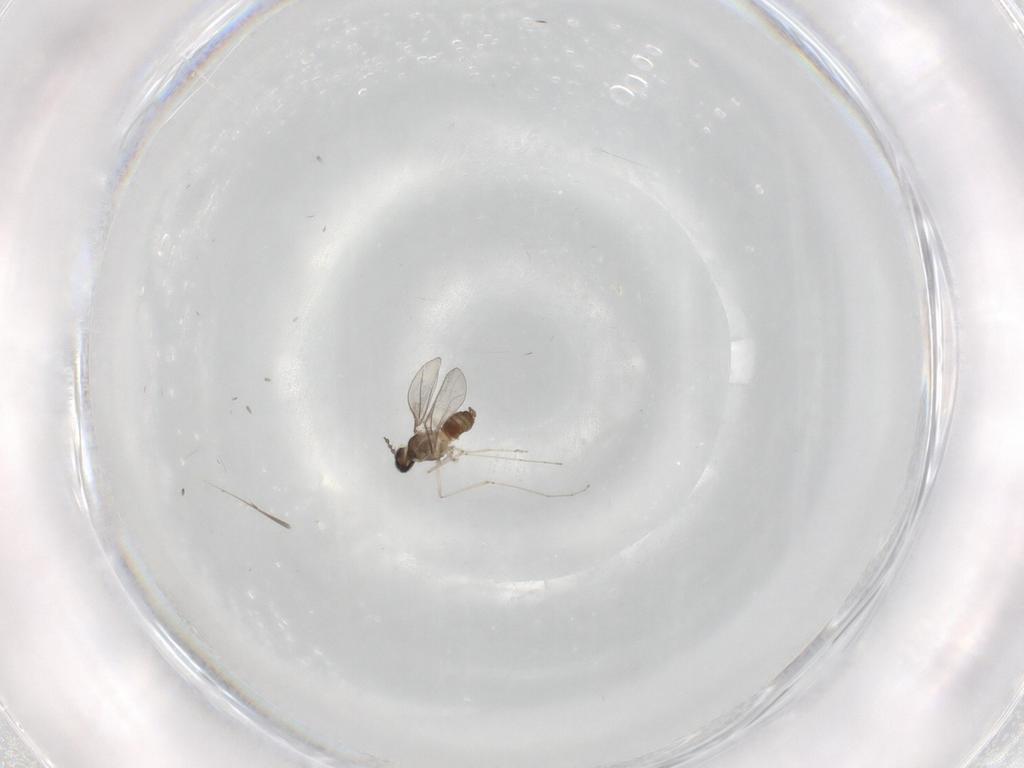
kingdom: Animalia
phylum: Arthropoda
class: Insecta
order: Diptera
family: Cecidomyiidae
